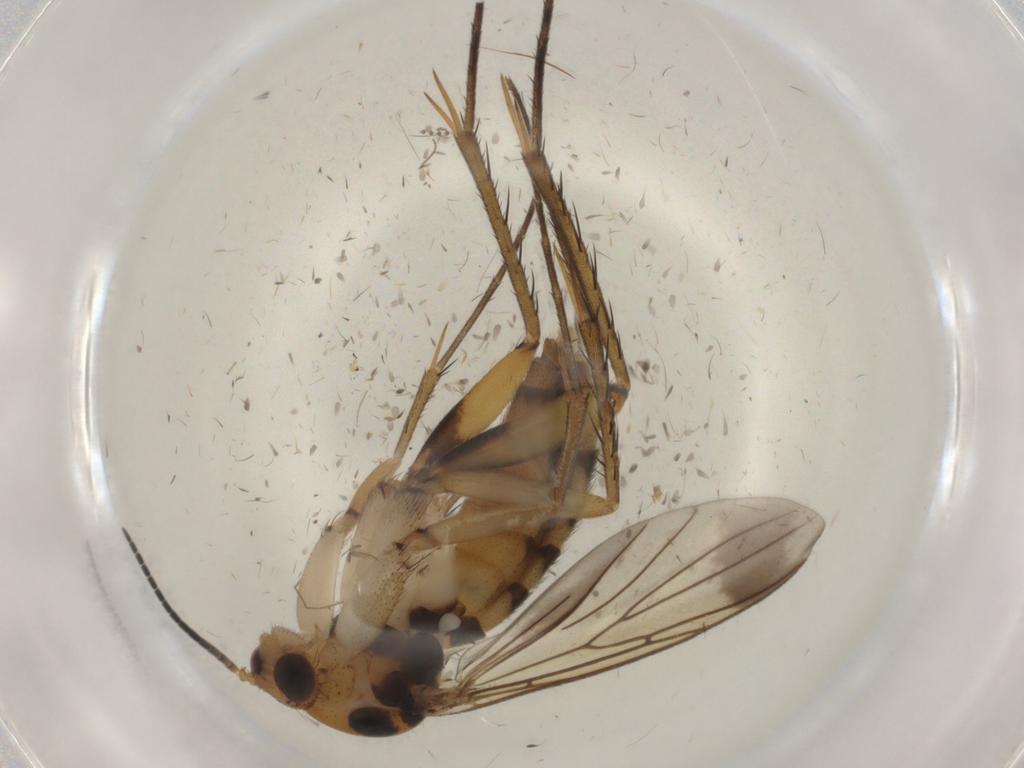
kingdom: Animalia
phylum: Arthropoda
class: Insecta
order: Diptera
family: Mycetophilidae
